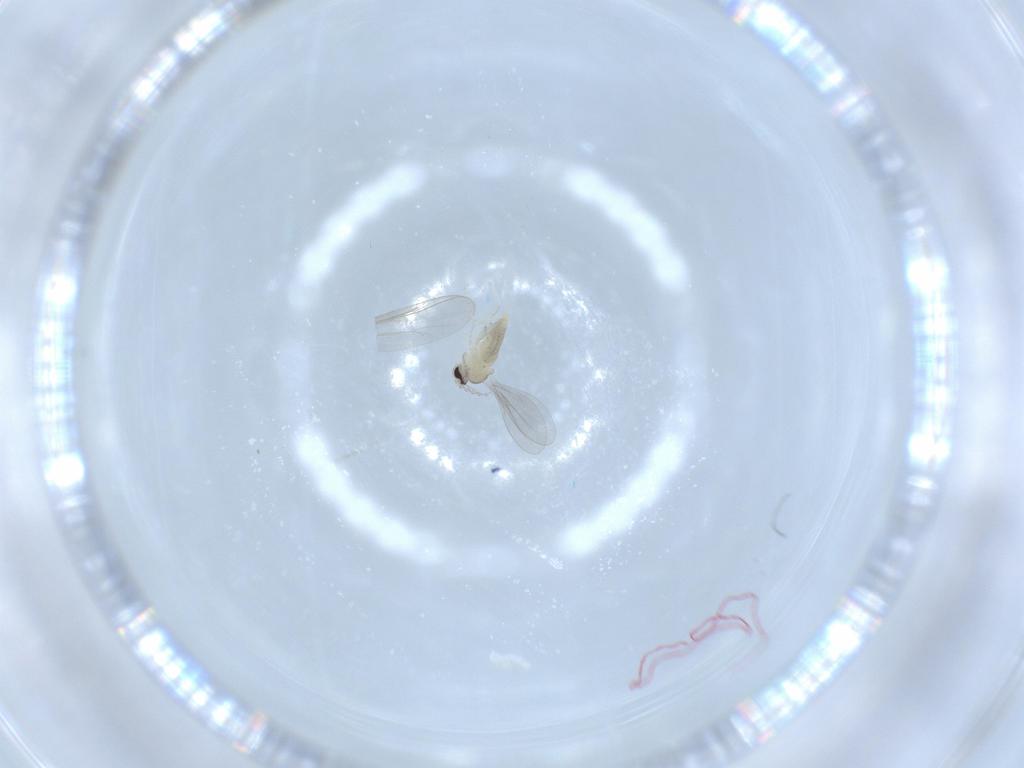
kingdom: Animalia
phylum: Arthropoda
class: Insecta
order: Diptera
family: Cecidomyiidae
